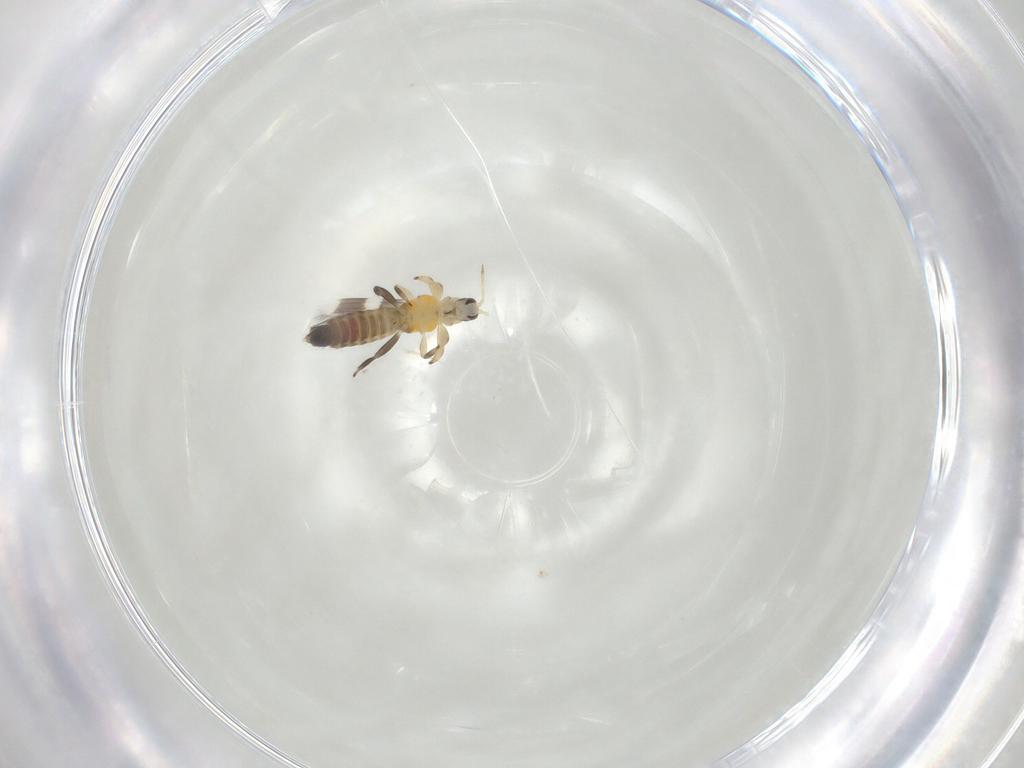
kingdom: Animalia
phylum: Arthropoda
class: Insecta
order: Thysanoptera
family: Aeolothripidae
